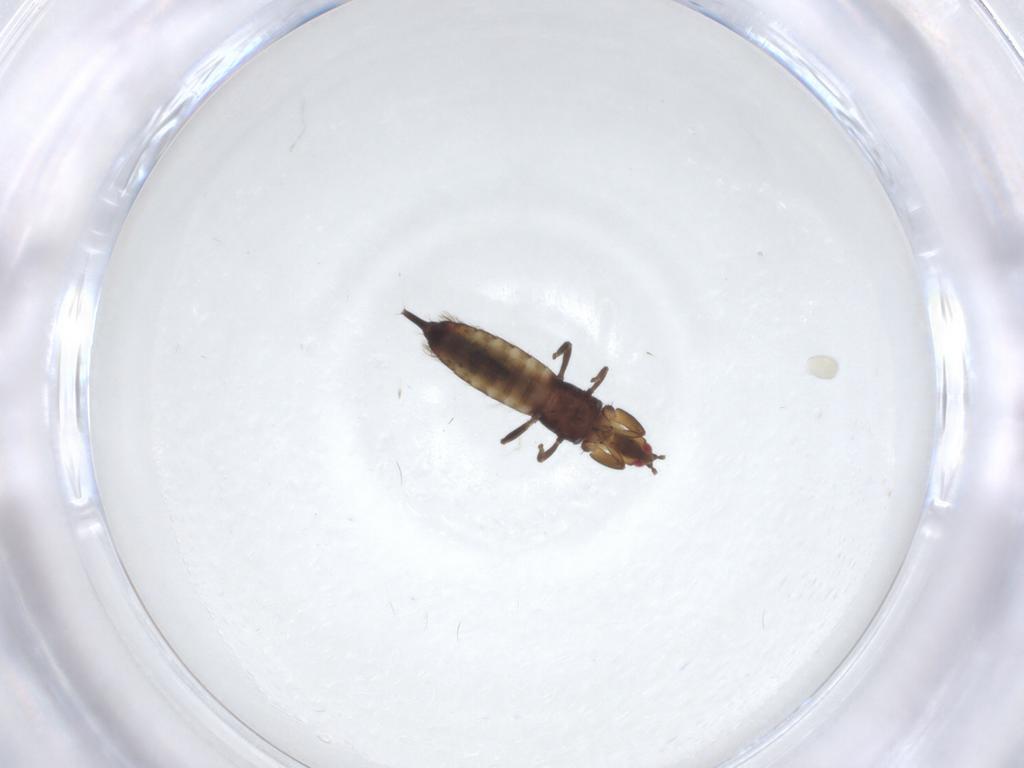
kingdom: Animalia
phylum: Arthropoda
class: Insecta
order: Thysanoptera
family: Phlaeothripidae
